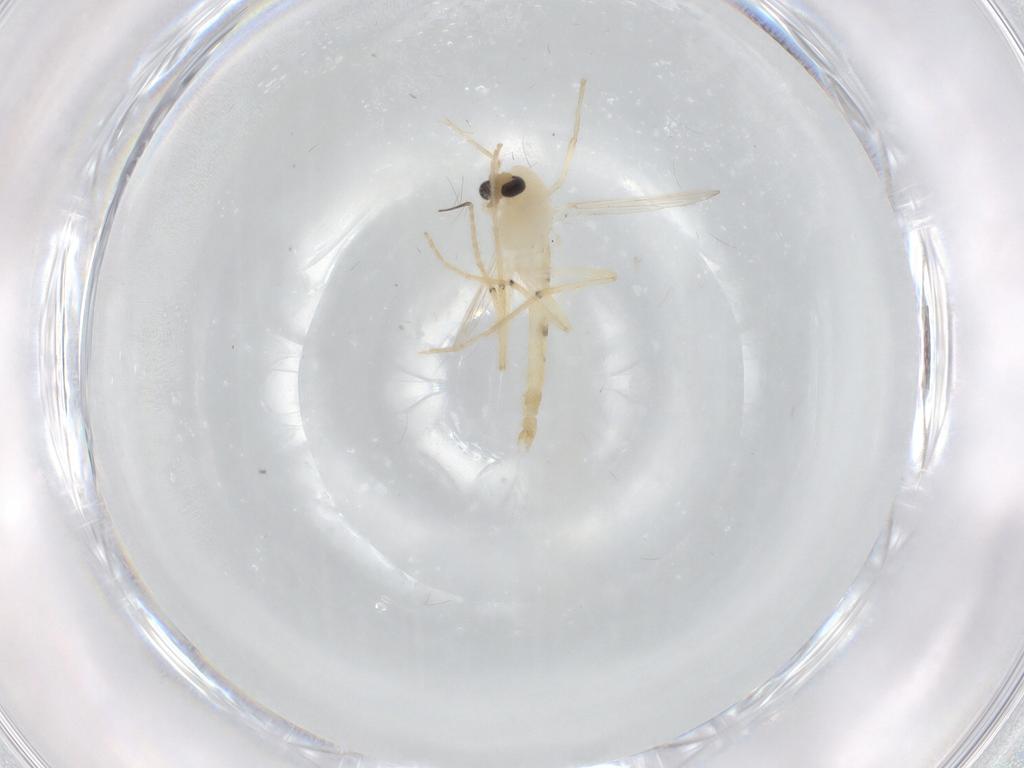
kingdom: Animalia
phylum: Arthropoda
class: Insecta
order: Diptera
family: Chironomidae
